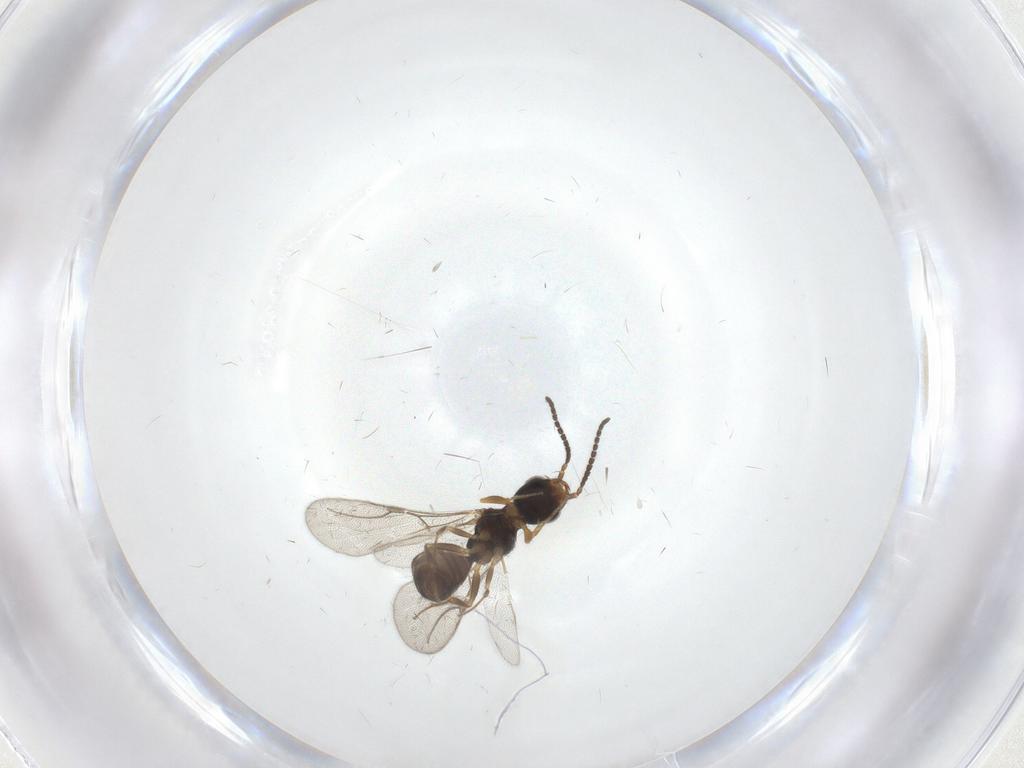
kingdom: Animalia
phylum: Arthropoda
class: Insecta
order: Hymenoptera
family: Bethylidae
